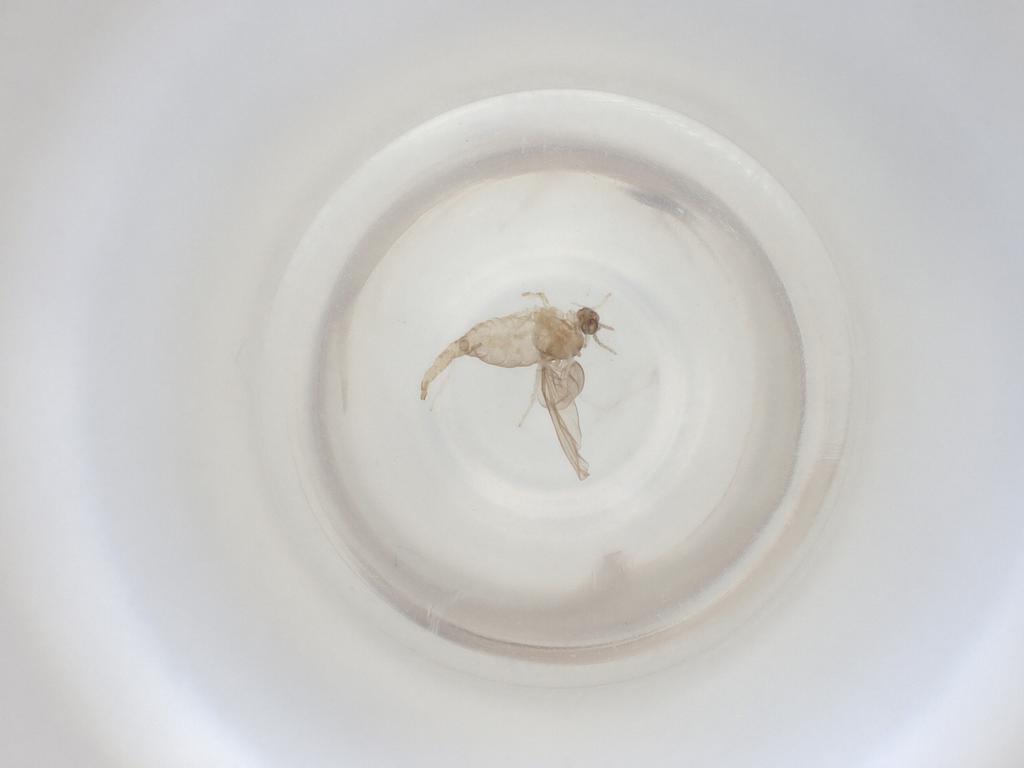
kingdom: Animalia
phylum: Arthropoda
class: Insecta
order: Diptera
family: Cecidomyiidae
